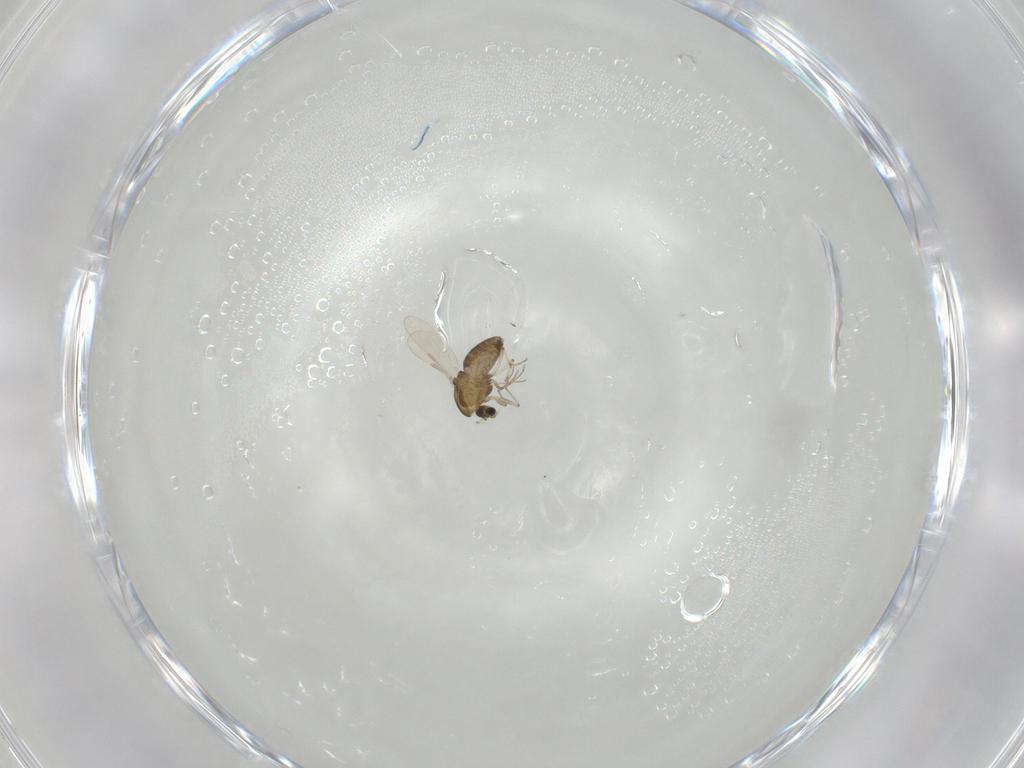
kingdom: Animalia
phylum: Arthropoda
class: Insecta
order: Diptera
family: Chironomidae
